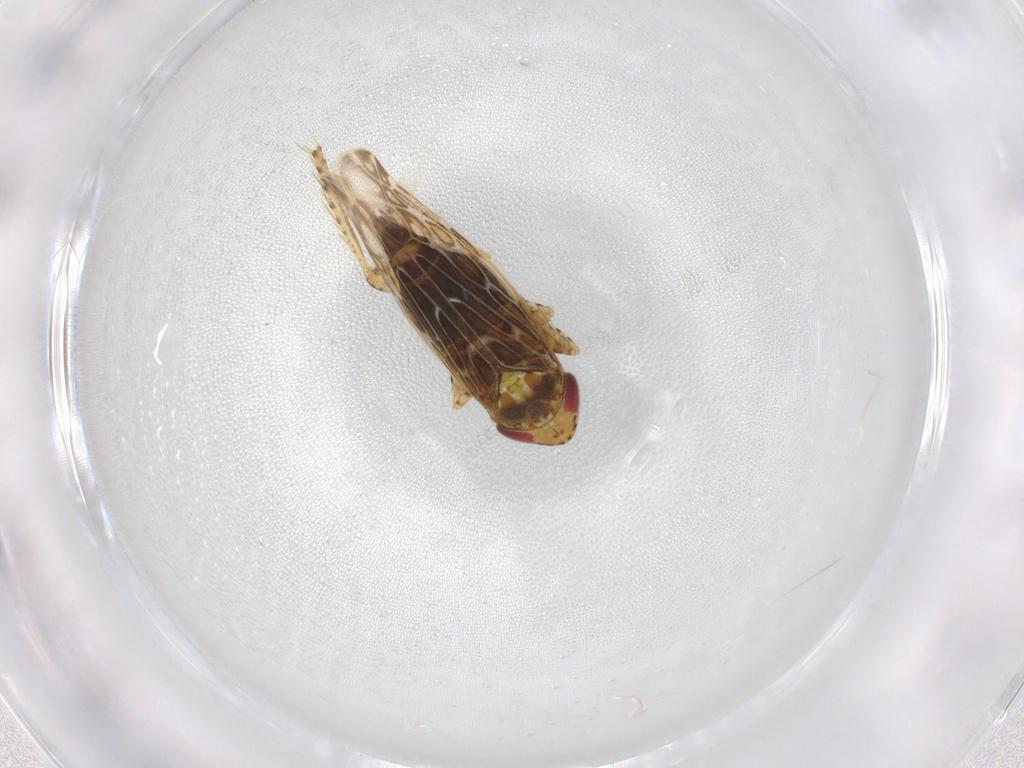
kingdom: Animalia
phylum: Arthropoda
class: Insecta
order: Hemiptera
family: Cicadellidae
